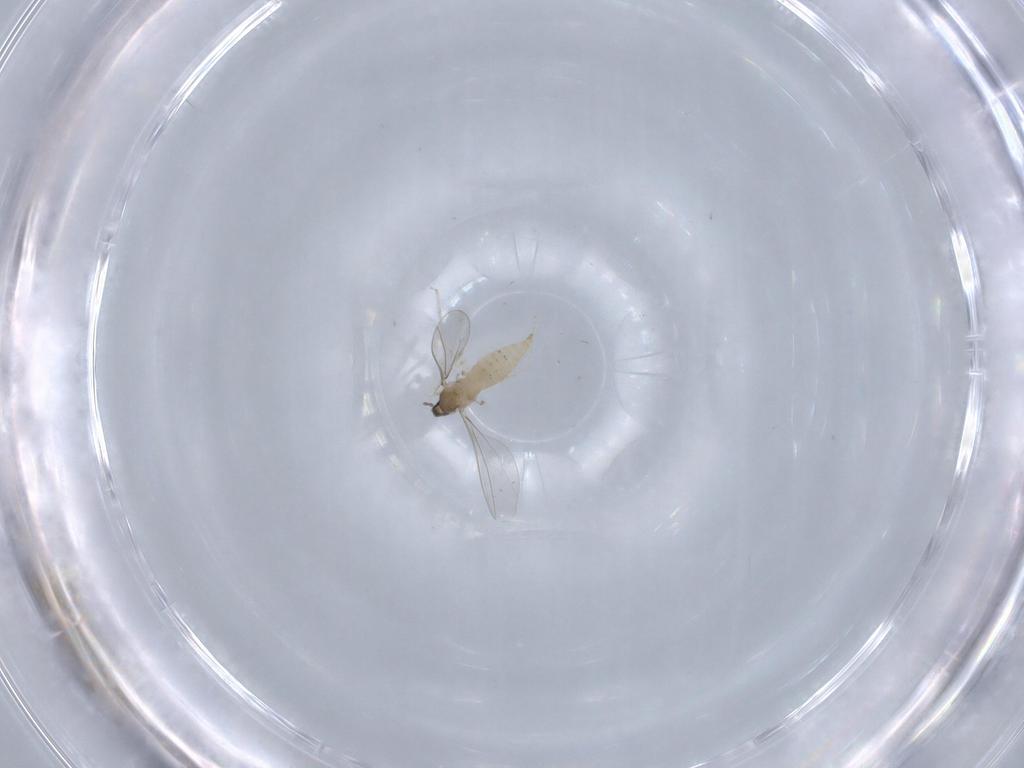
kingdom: Animalia
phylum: Arthropoda
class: Insecta
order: Diptera
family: Cecidomyiidae
